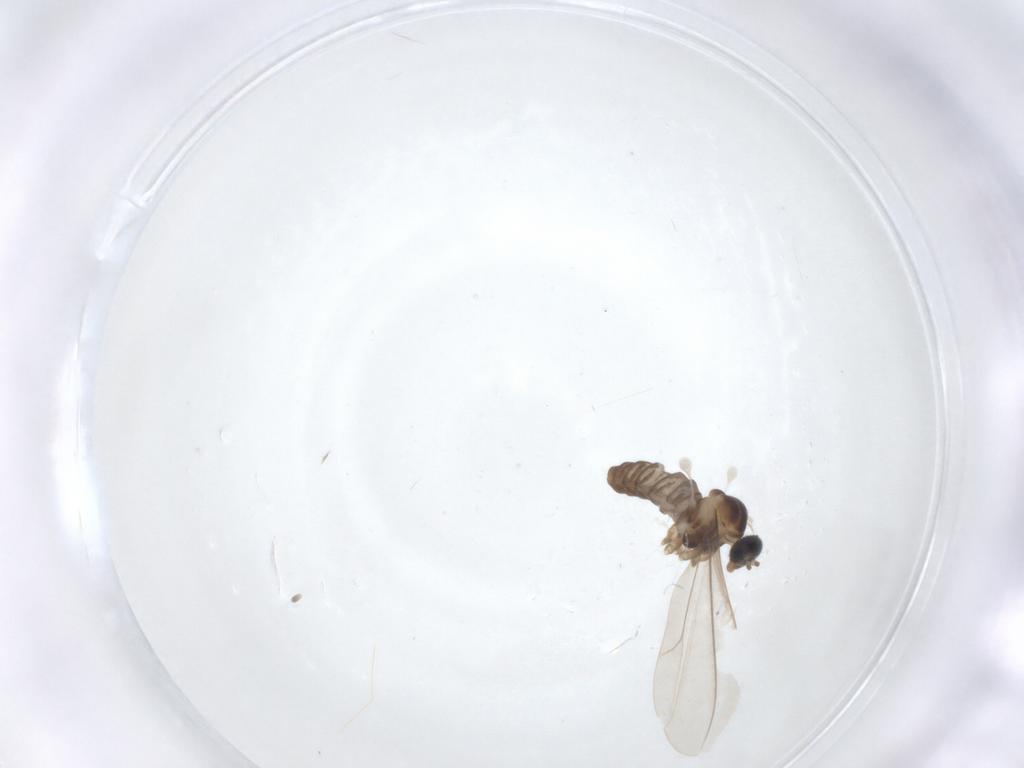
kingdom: Animalia
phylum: Arthropoda
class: Insecta
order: Diptera
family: Cecidomyiidae
